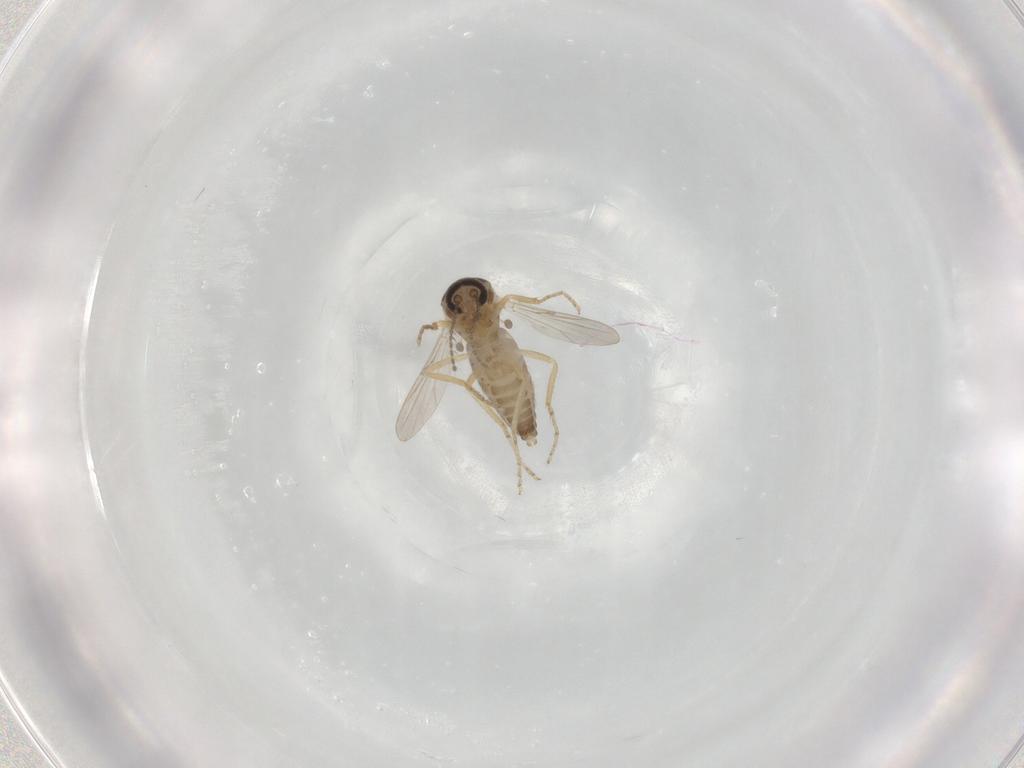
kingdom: Animalia
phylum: Arthropoda
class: Insecta
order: Diptera
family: Ceratopogonidae
